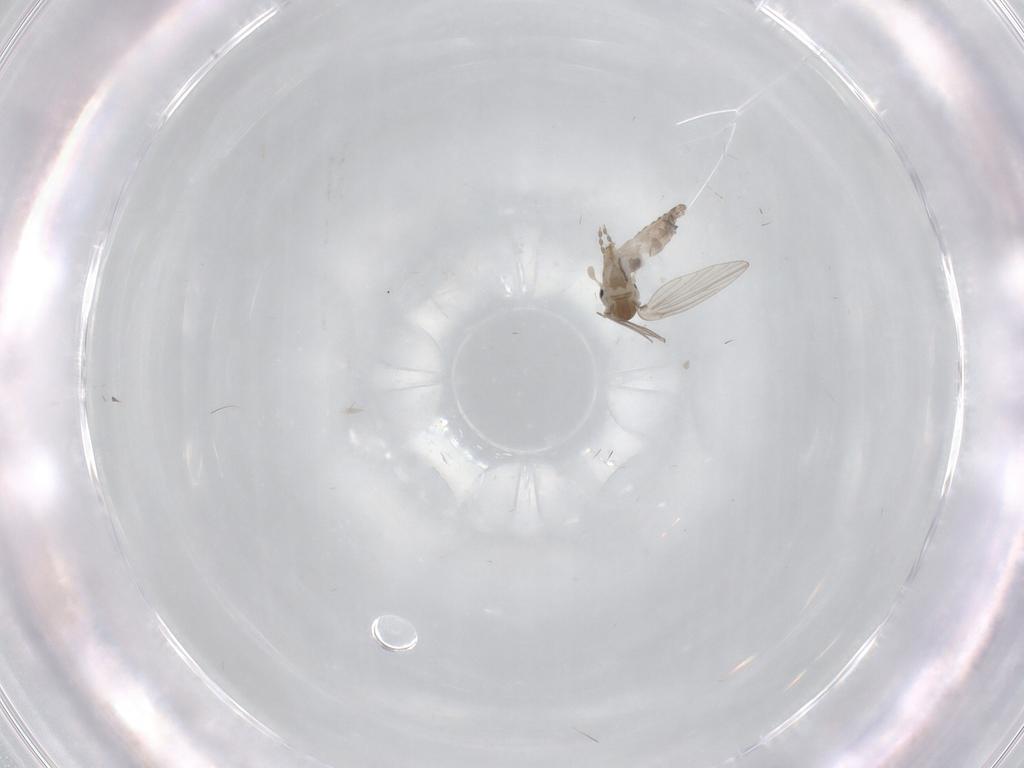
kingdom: Animalia
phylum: Arthropoda
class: Insecta
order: Diptera
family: Psychodidae
